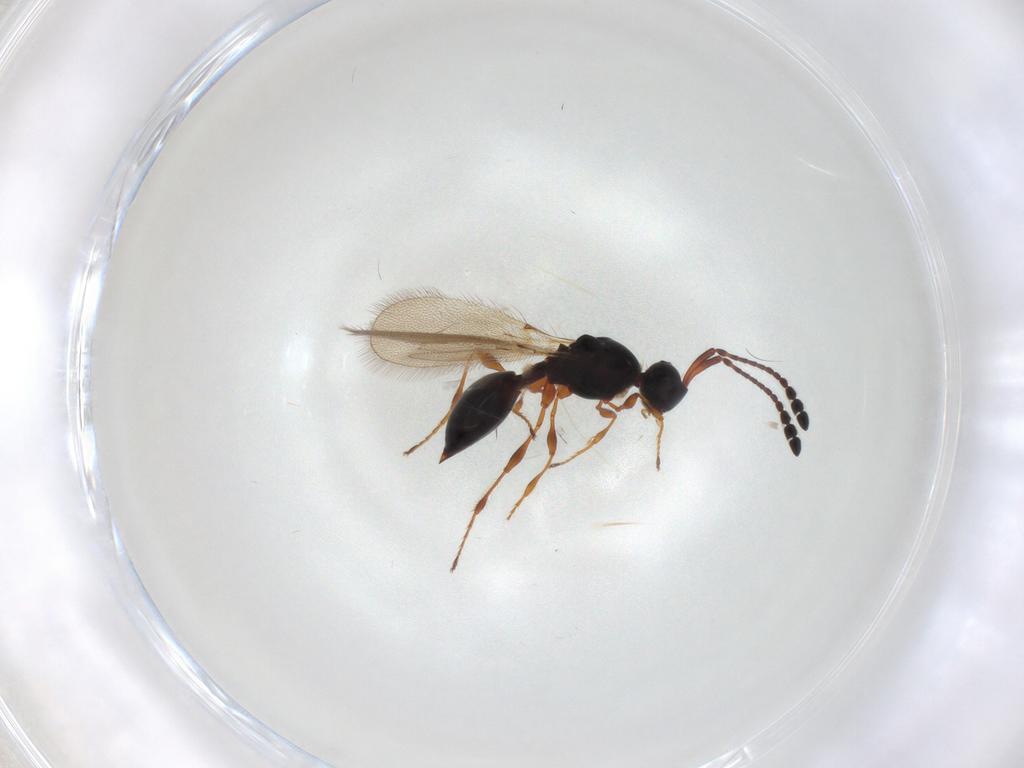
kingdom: Animalia
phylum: Arthropoda
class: Insecta
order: Hymenoptera
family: Diapriidae
